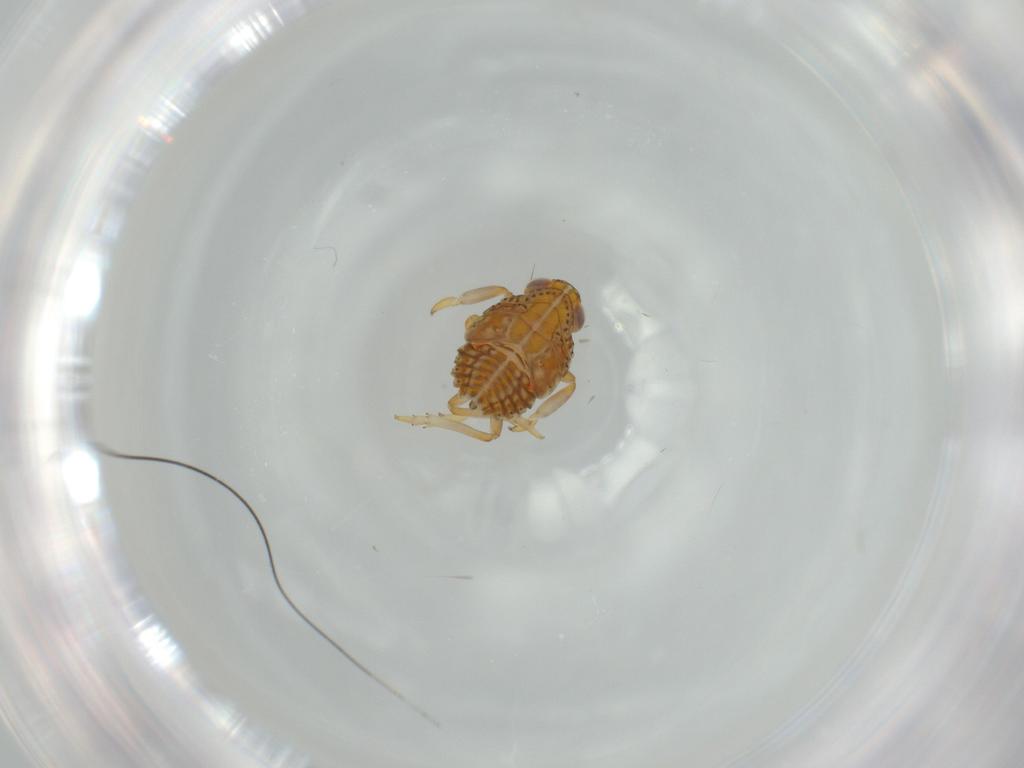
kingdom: Animalia
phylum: Arthropoda
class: Insecta
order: Hemiptera
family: Issidae
